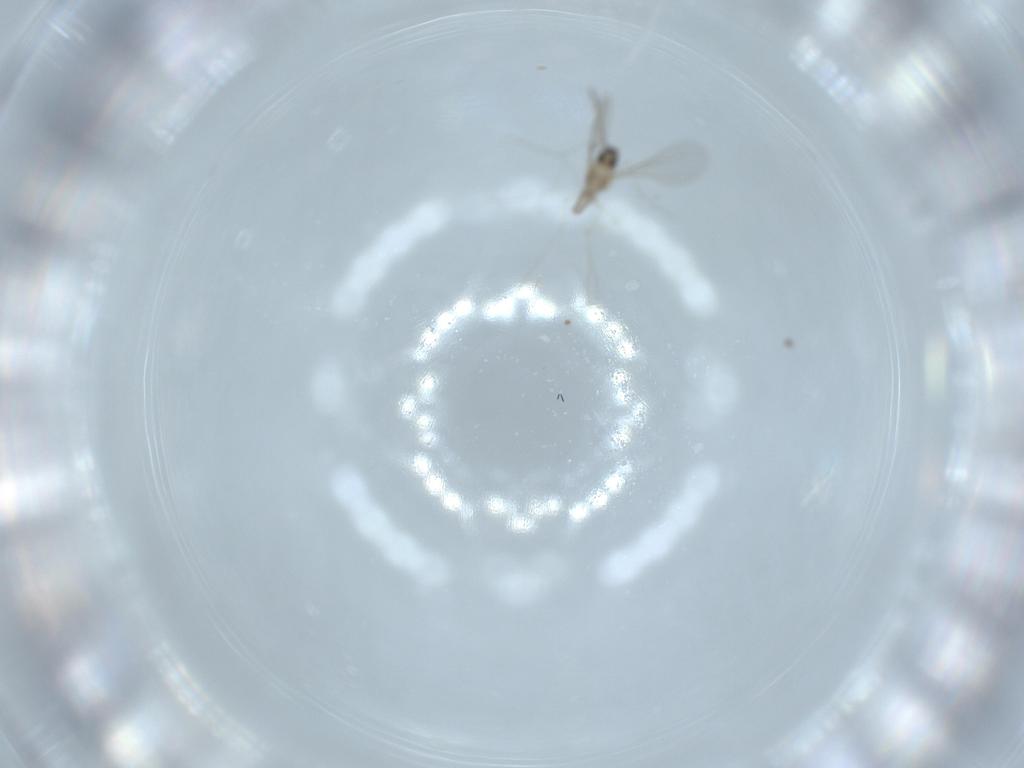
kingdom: Animalia
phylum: Arthropoda
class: Insecta
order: Diptera
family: Cecidomyiidae
